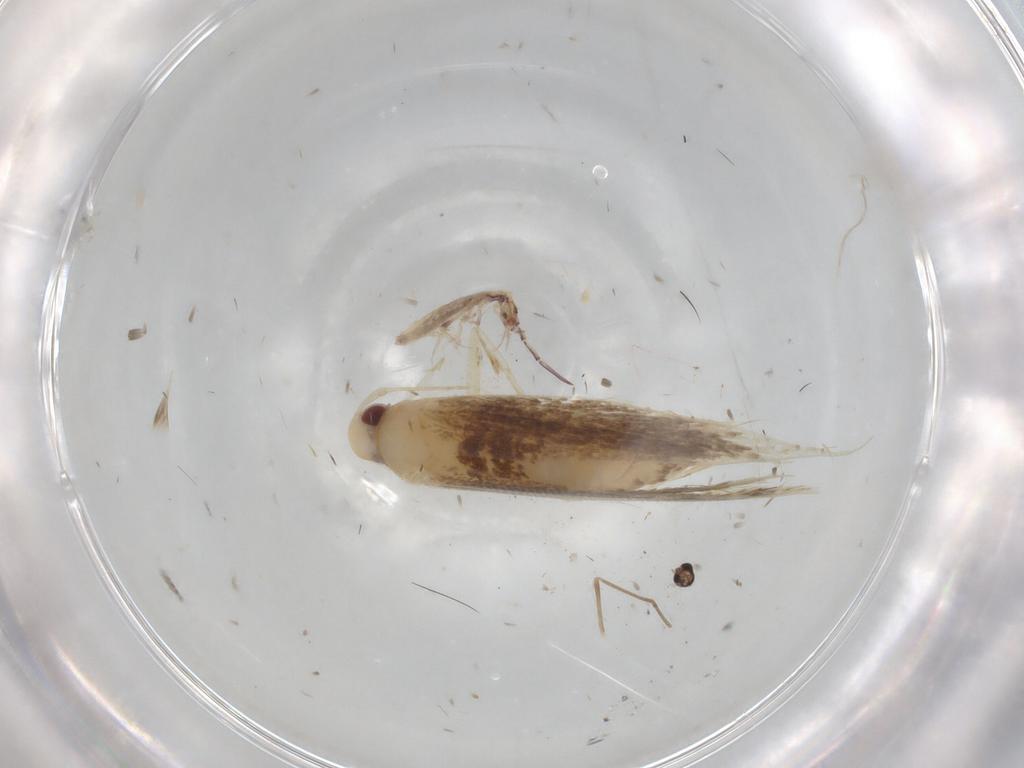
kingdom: Animalia
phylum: Arthropoda
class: Insecta
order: Lepidoptera
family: Cosmopterigidae
